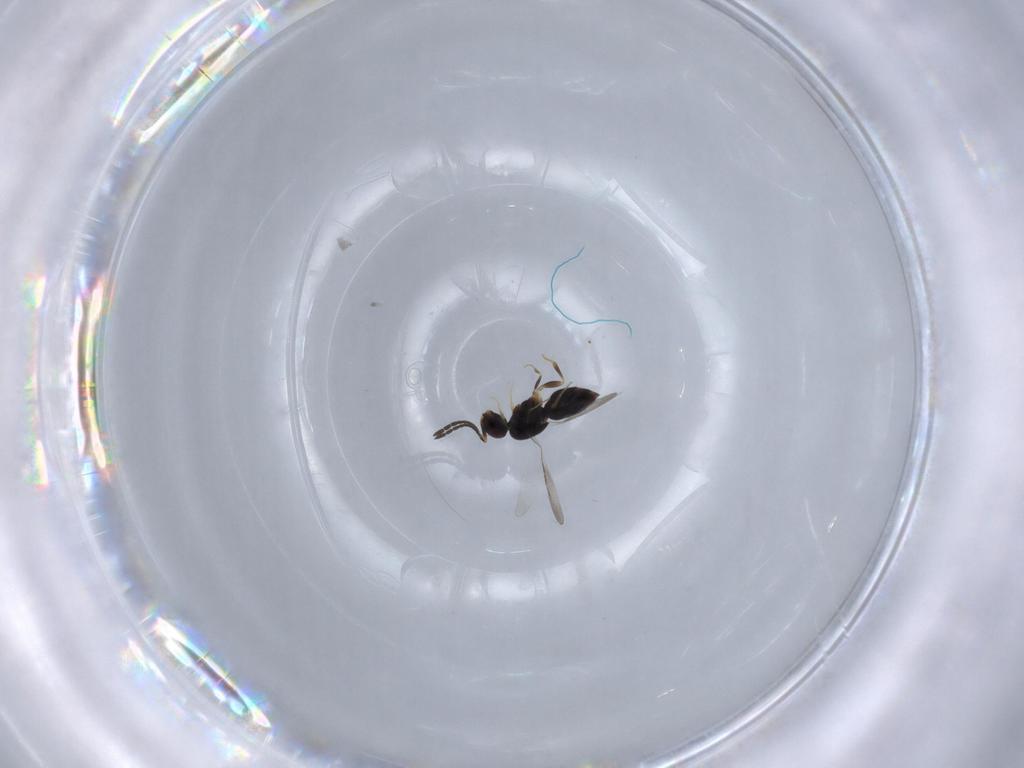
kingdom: Animalia
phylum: Arthropoda
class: Insecta
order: Hymenoptera
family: Ceraphronidae
